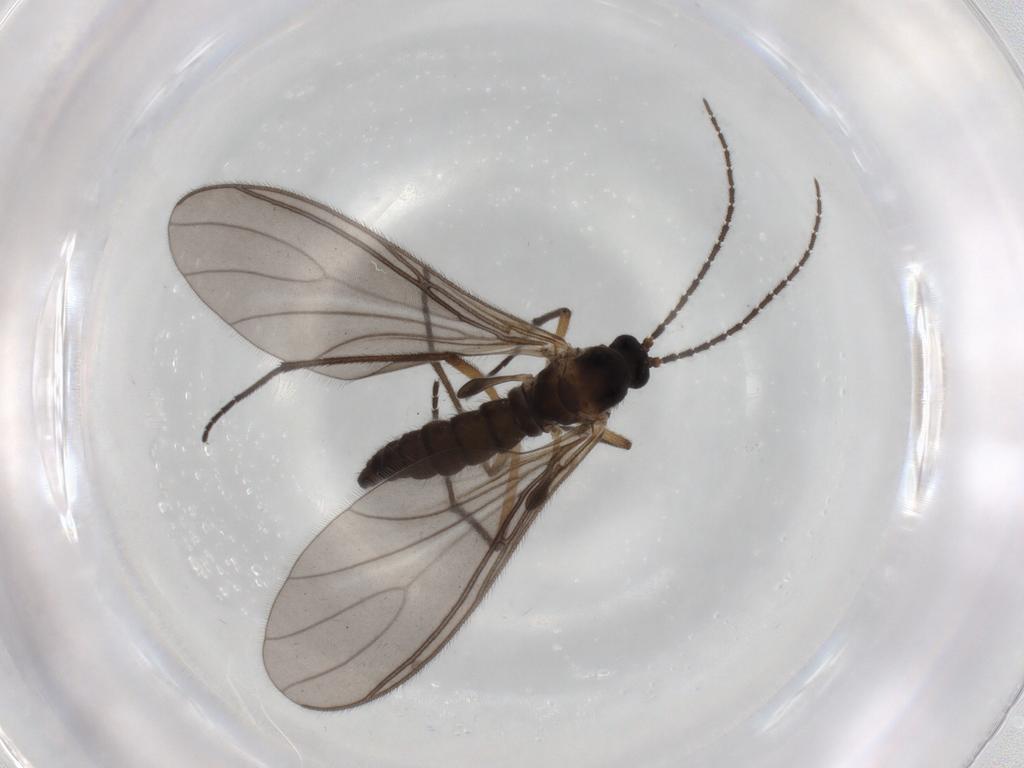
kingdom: Animalia
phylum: Arthropoda
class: Insecta
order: Diptera
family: Sciaridae
